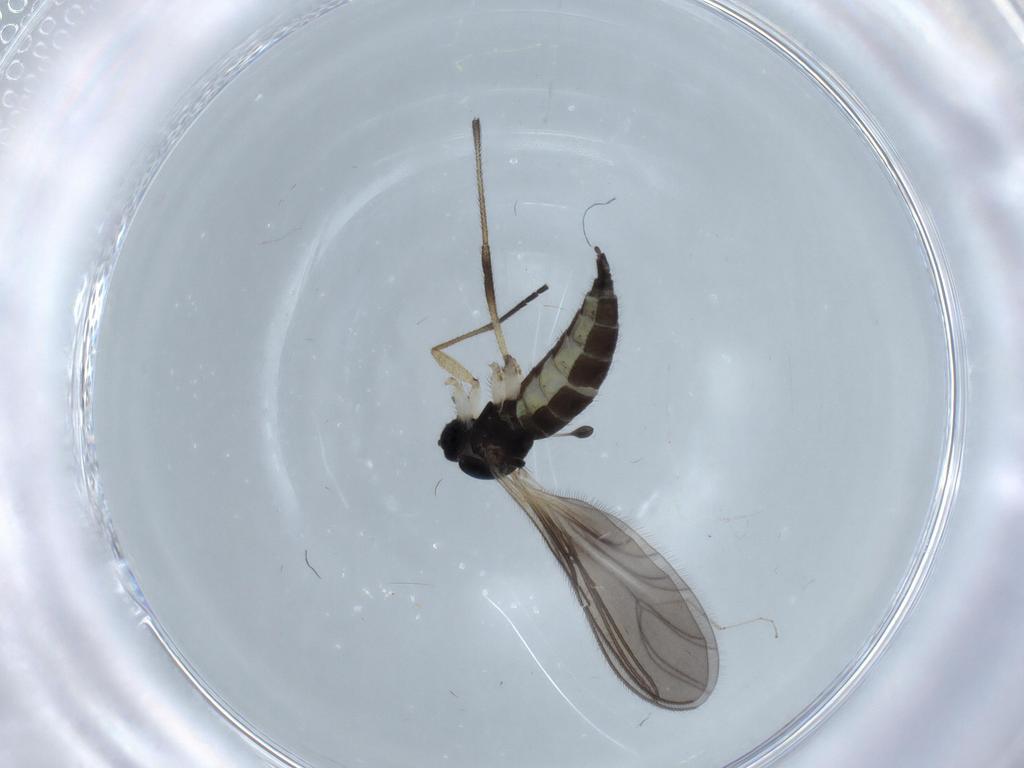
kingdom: Animalia
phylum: Arthropoda
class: Insecta
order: Diptera
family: Sciaridae
